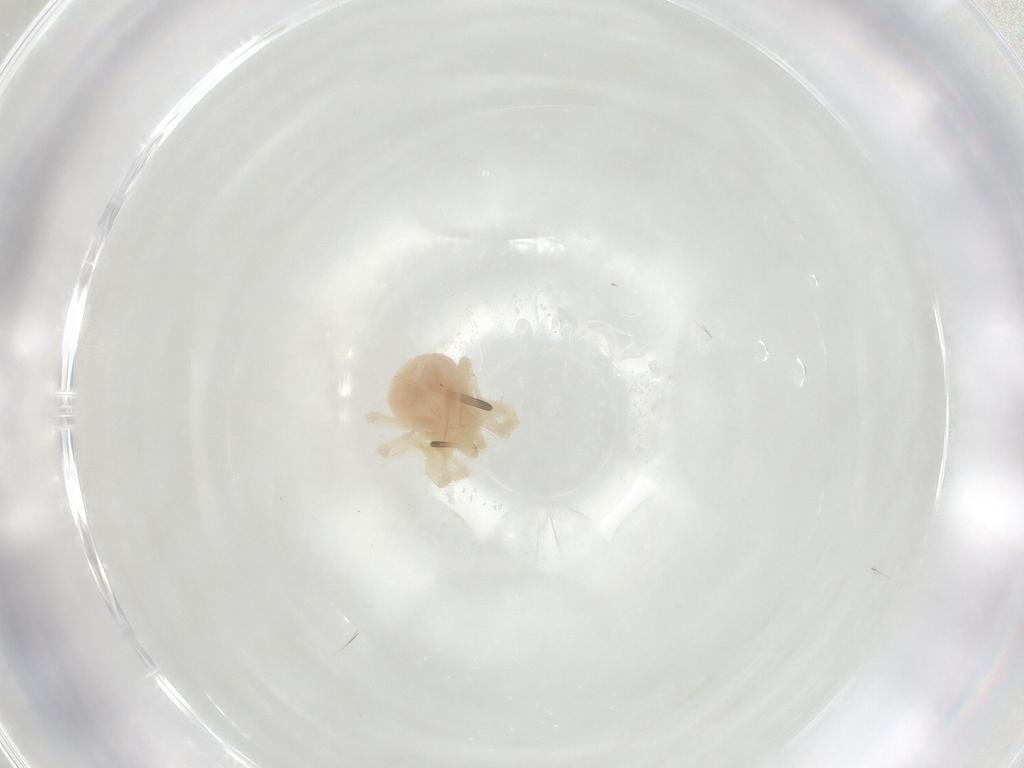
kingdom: Animalia
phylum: Arthropoda
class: Arachnida
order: Trombidiformes
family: Anystidae
